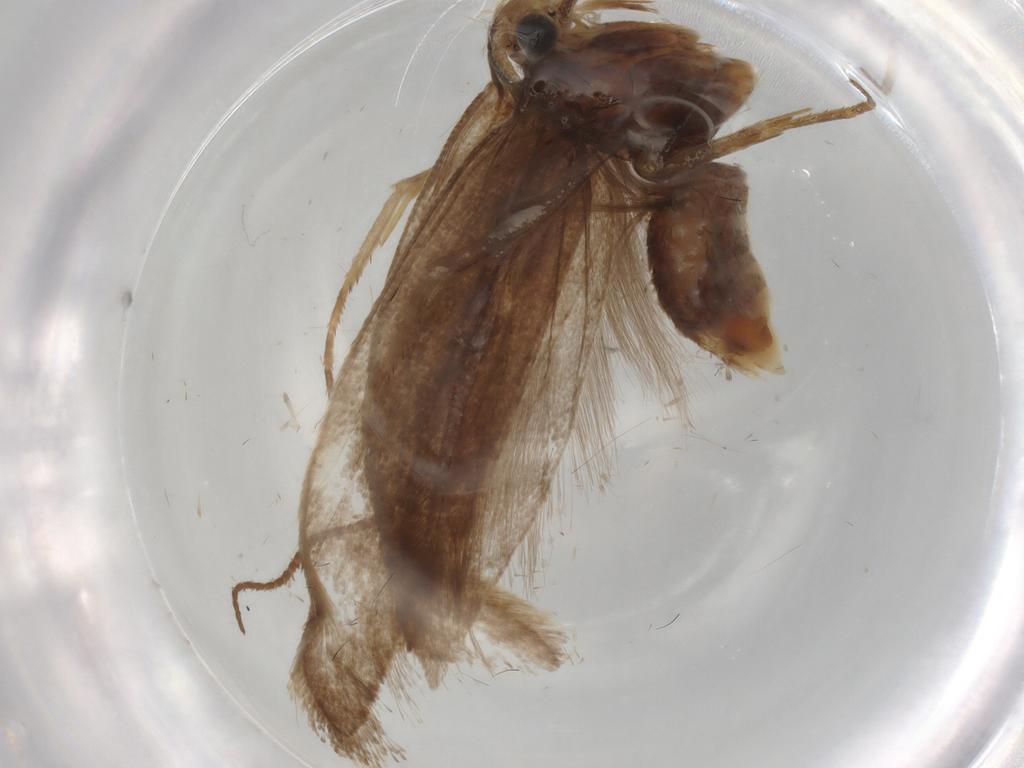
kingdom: Animalia
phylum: Arthropoda
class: Insecta
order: Lepidoptera
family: Plutellidae
